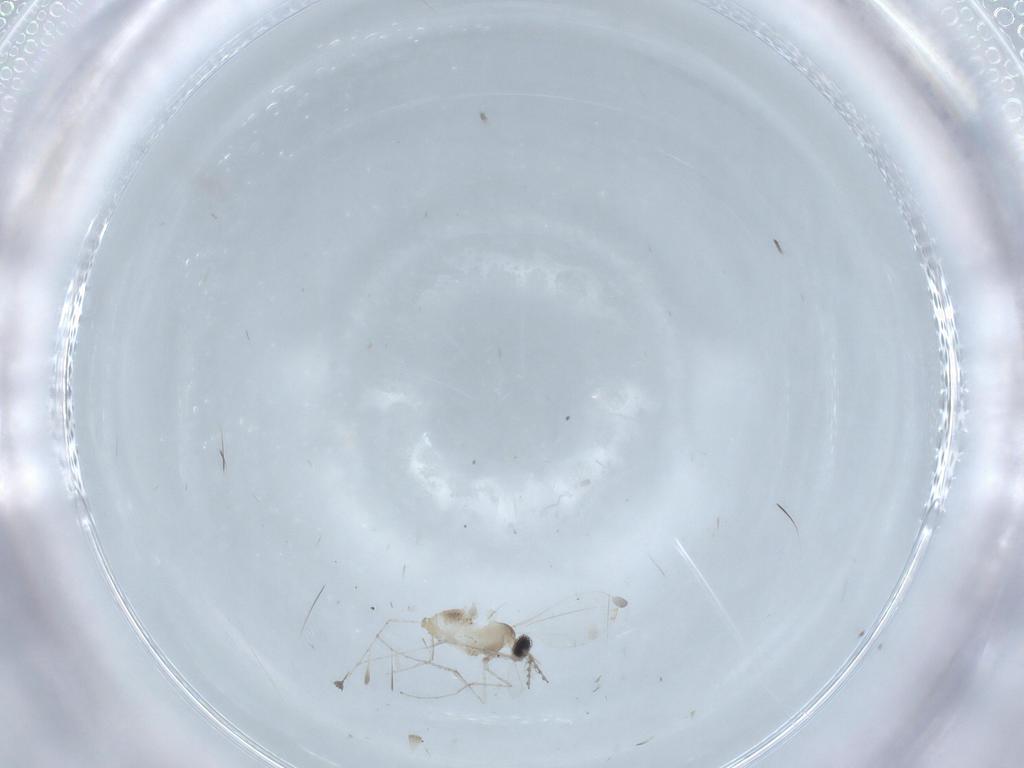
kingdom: Animalia
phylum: Arthropoda
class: Insecta
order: Diptera
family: Cecidomyiidae
